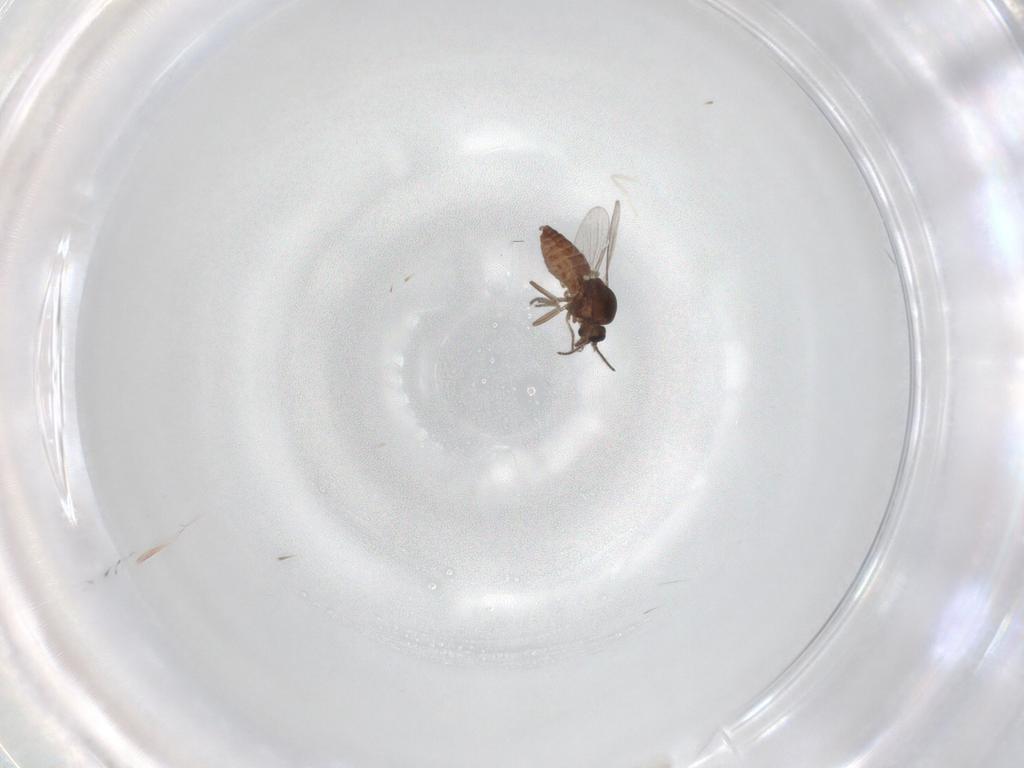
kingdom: Animalia
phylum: Arthropoda
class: Insecta
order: Diptera
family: Ceratopogonidae
